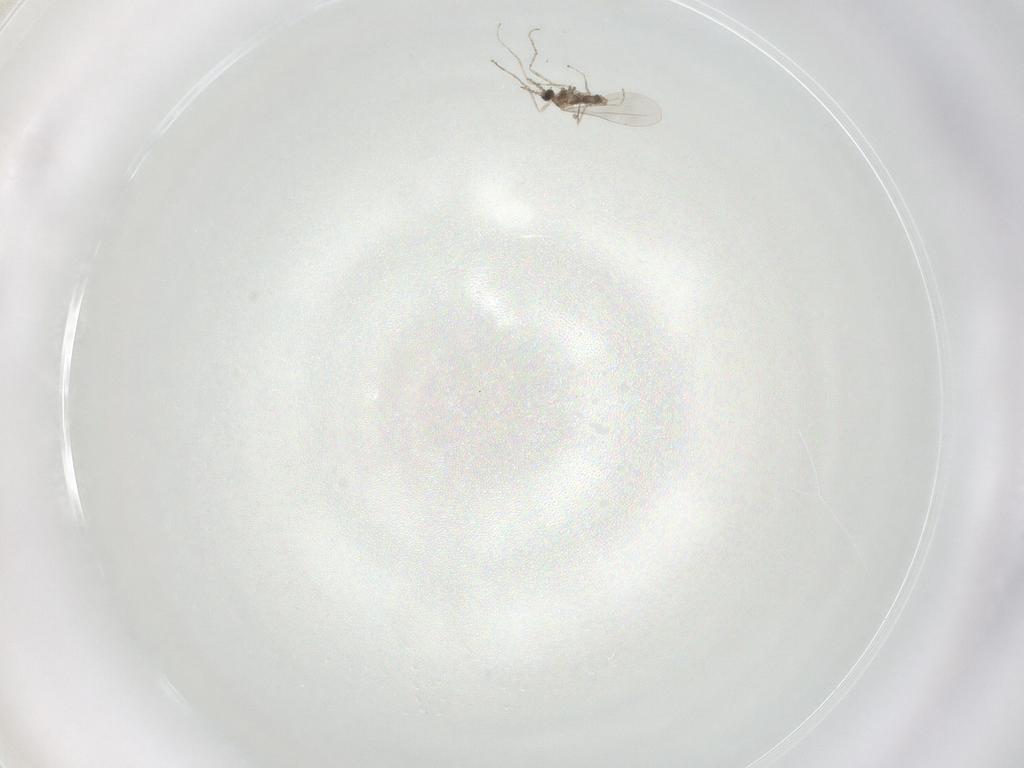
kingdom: Animalia
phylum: Arthropoda
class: Insecta
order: Diptera
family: Cecidomyiidae
